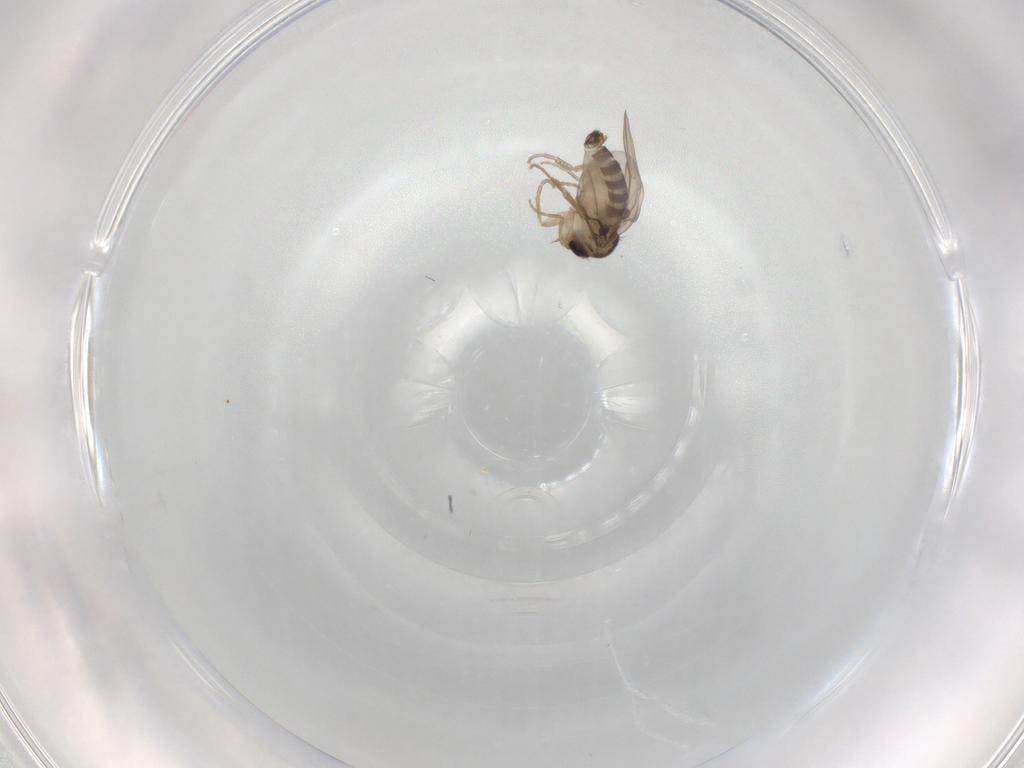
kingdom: Animalia
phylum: Arthropoda
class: Insecta
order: Diptera
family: Phoridae
